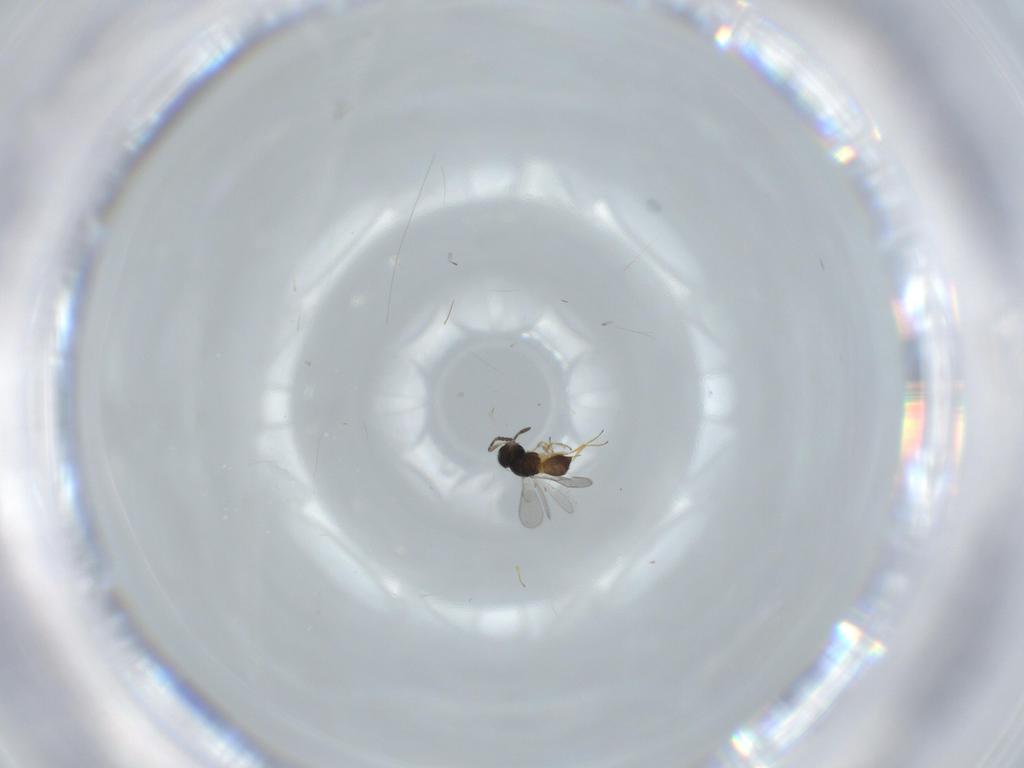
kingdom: Animalia
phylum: Arthropoda
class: Insecta
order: Hymenoptera
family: Scelionidae
